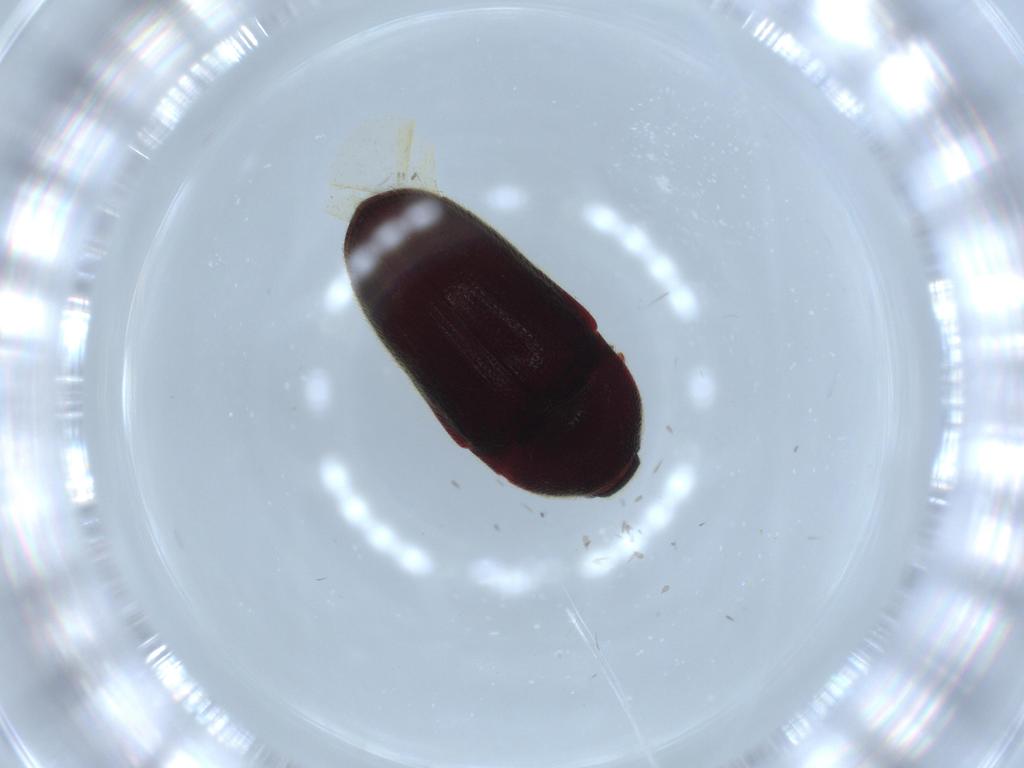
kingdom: Animalia
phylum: Arthropoda
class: Insecta
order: Coleoptera
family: Throscidae
